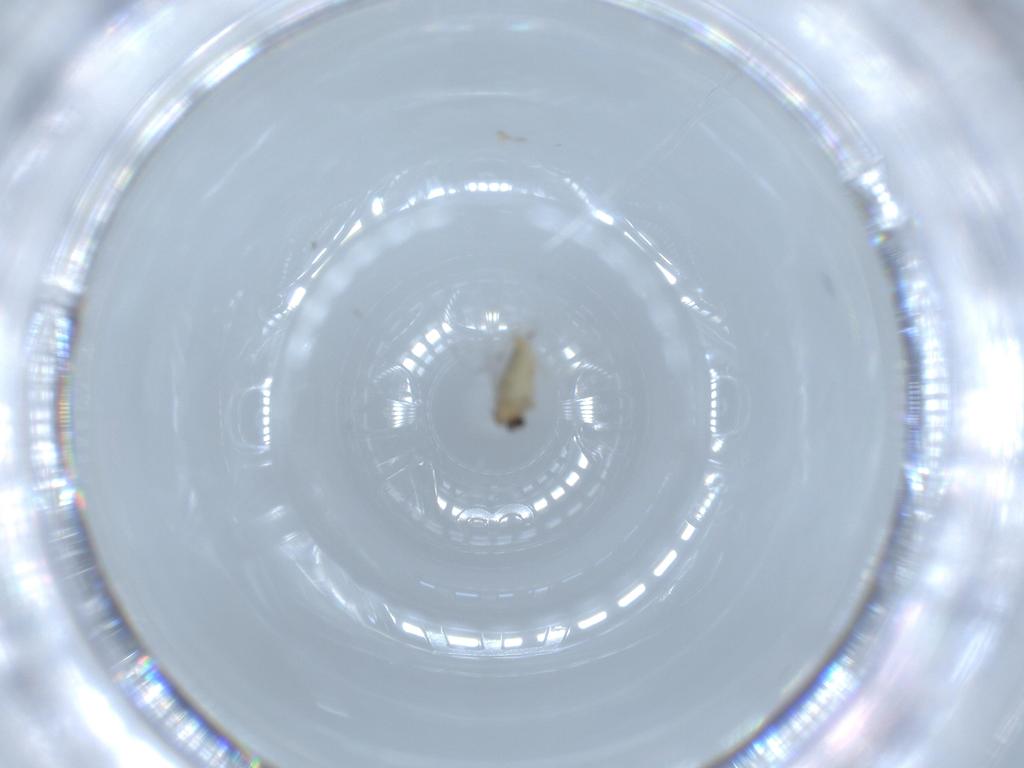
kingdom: Animalia
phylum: Arthropoda
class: Insecta
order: Diptera
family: Cecidomyiidae
